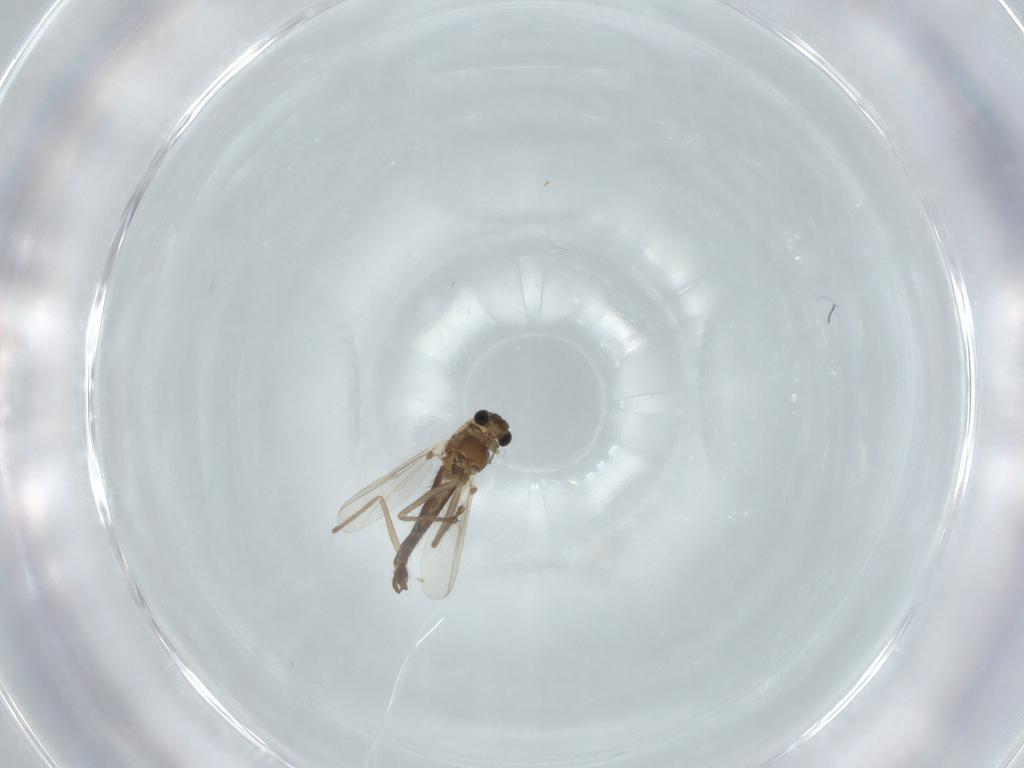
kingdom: Animalia
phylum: Arthropoda
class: Insecta
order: Diptera
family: Chironomidae
